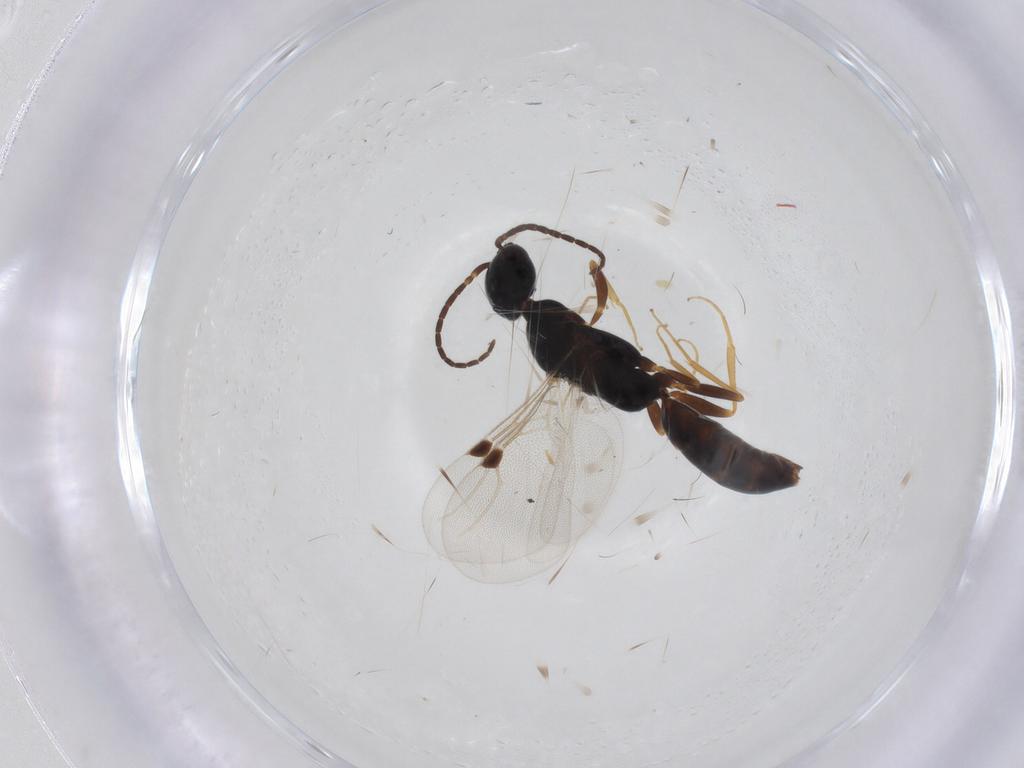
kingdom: Animalia
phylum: Arthropoda
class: Insecta
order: Hymenoptera
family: Bethylidae
